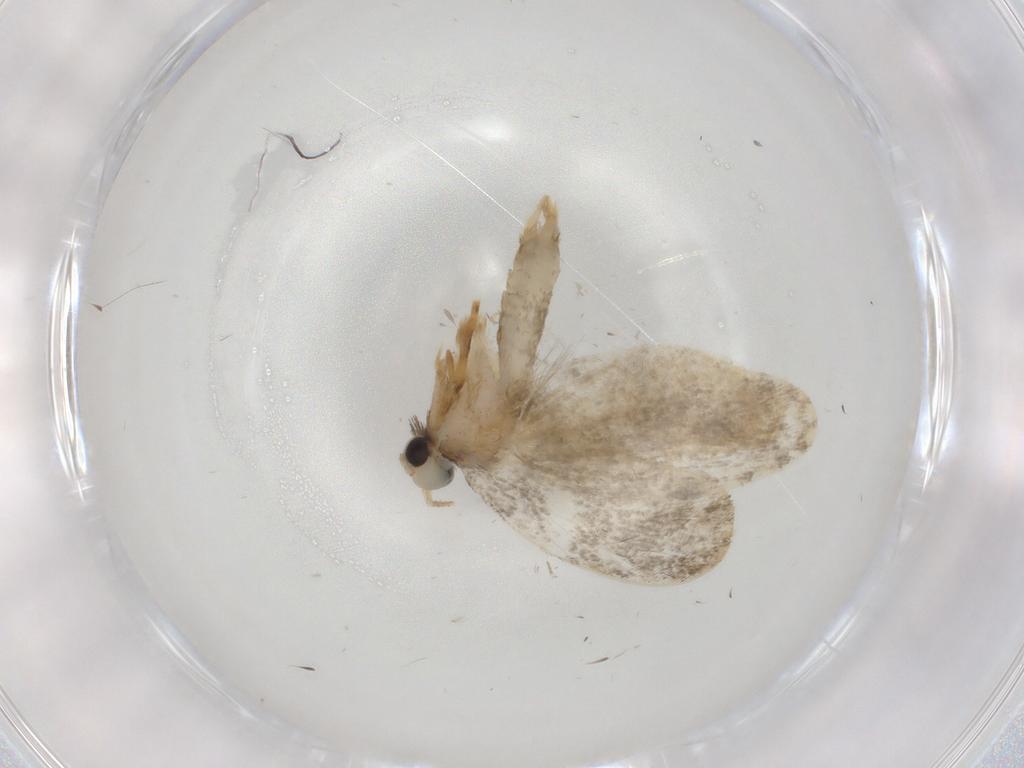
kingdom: Animalia
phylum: Arthropoda
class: Insecta
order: Lepidoptera
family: Psychidae
